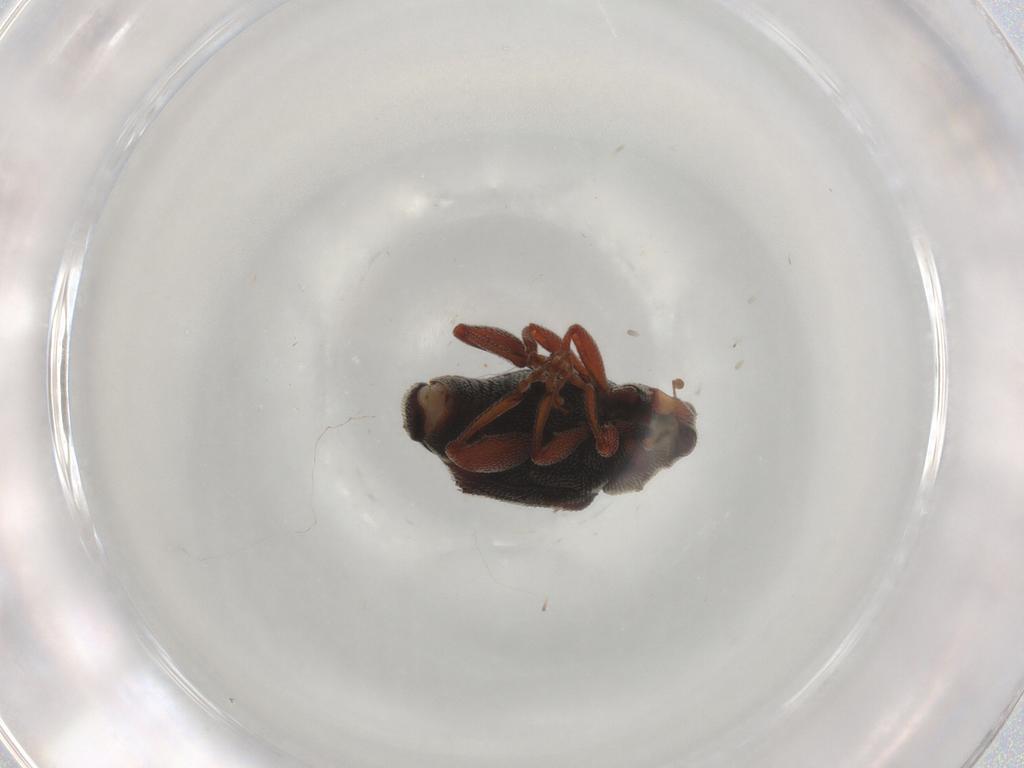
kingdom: Animalia
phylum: Arthropoda
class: Insecta
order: Coleoptera
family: Curculionidae
